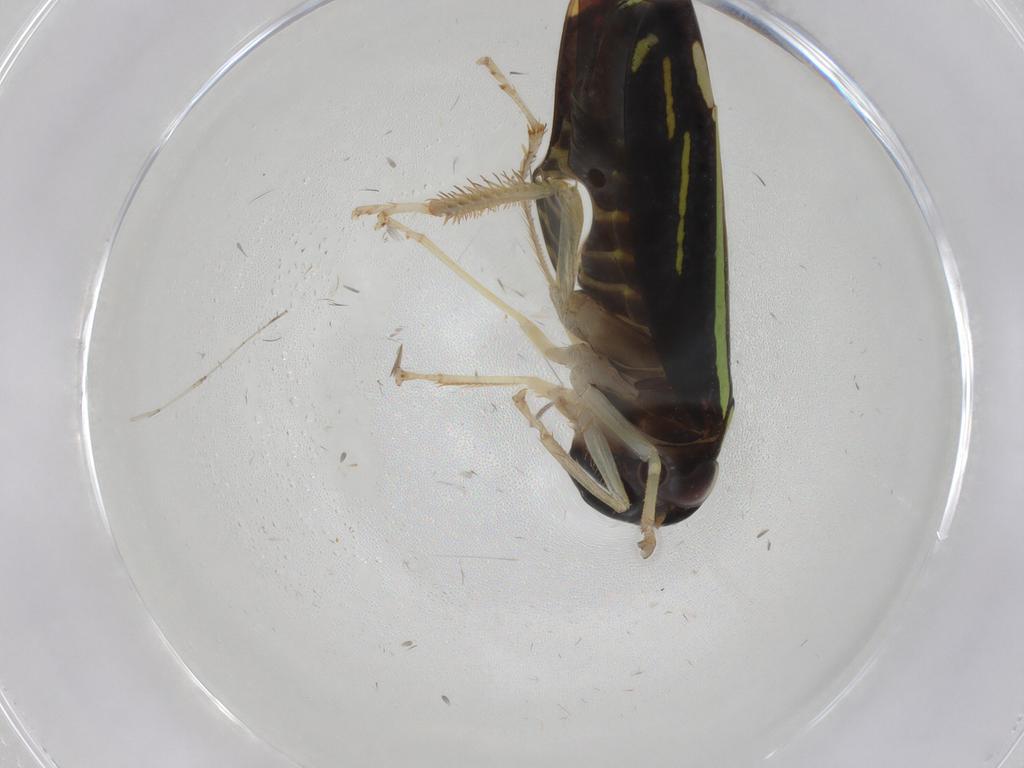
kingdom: Animalia
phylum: Arthropoda
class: Insecta
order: Hemiptera
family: Cicadellidae
